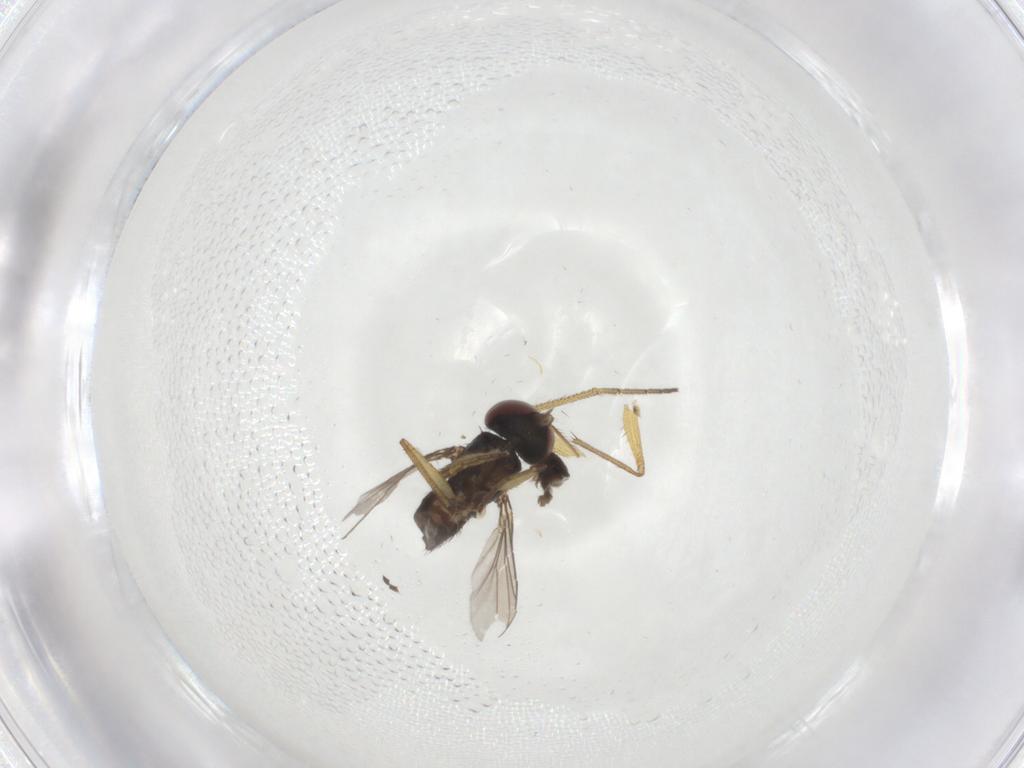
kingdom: Animalia
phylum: Arthropoda
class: Insecta
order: Diptera
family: Dolichopodidae
